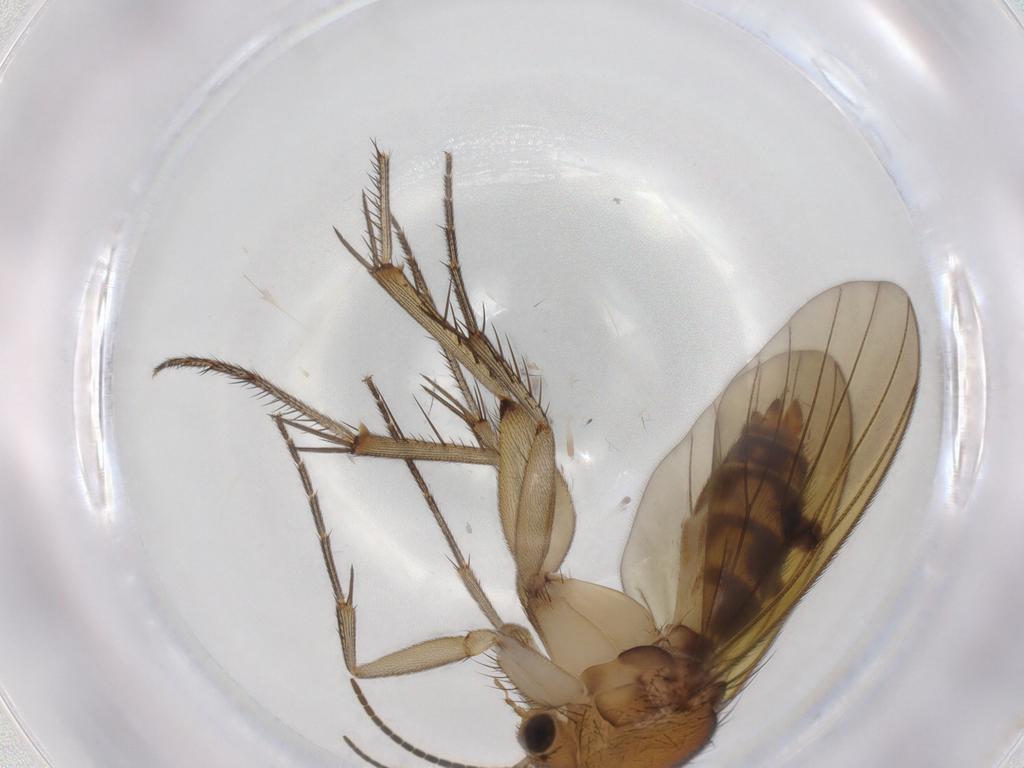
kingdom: Animalia
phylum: Arthropoda
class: Insecta
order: Diptera
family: Mycetophilidae
